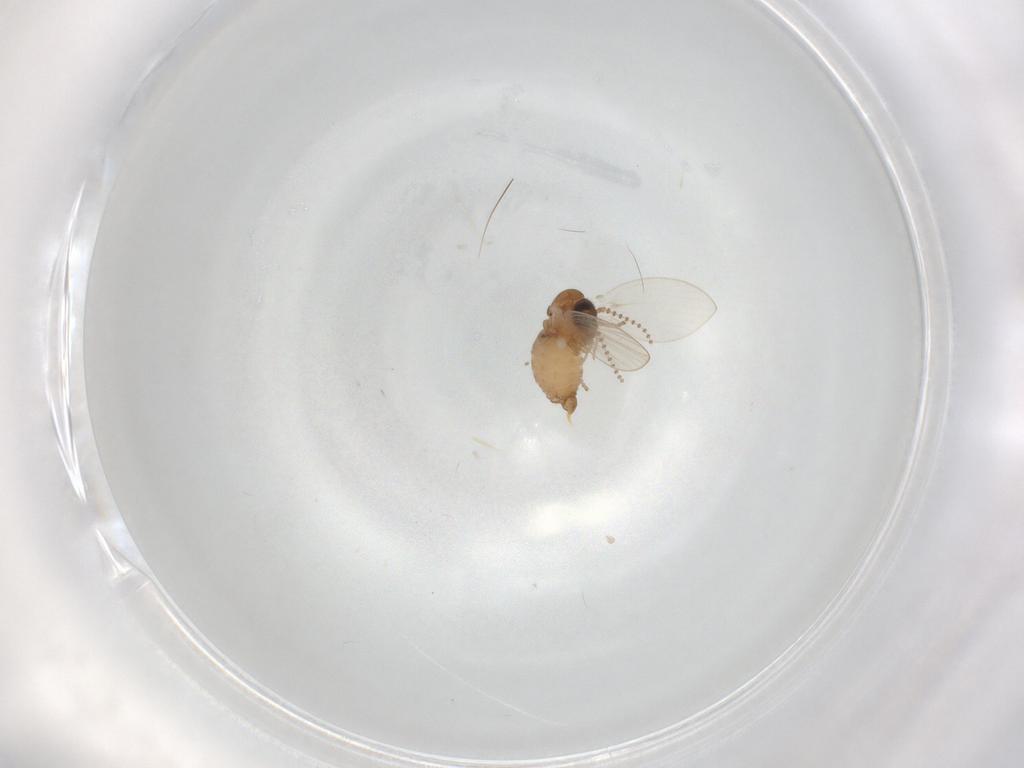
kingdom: Animalia
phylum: Arthropoda
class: Insecta
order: Diptera
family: Psychodidae
